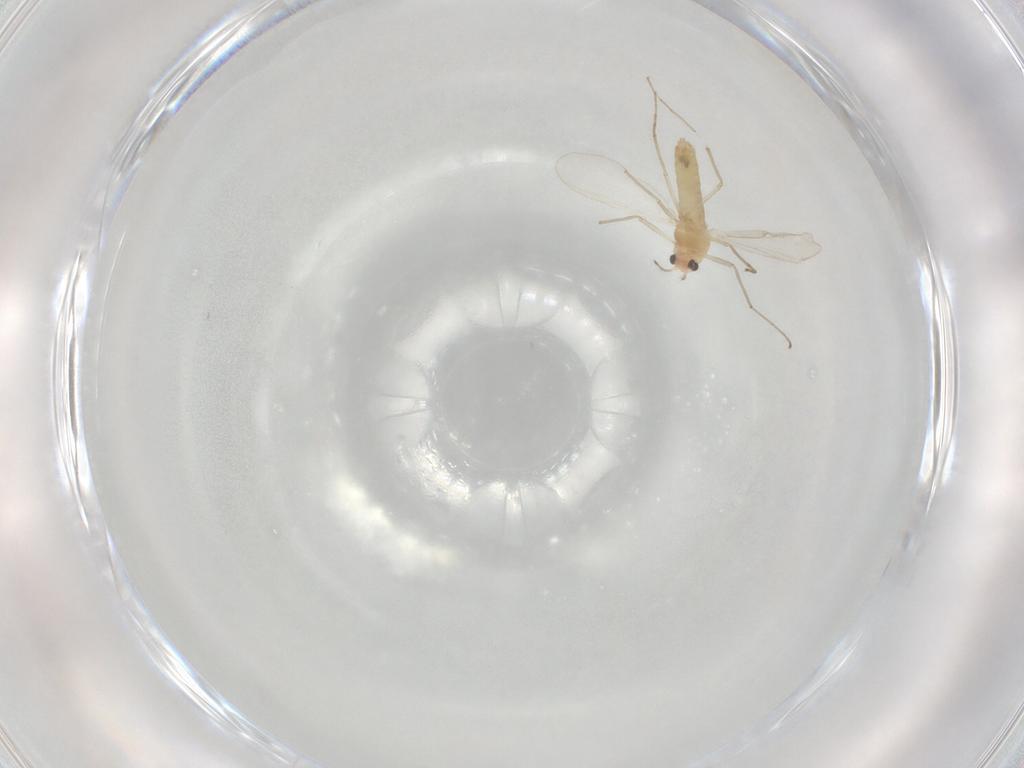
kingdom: Animalia
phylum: Arthropoda
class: Insecta
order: Diptera
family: Chironomidae
